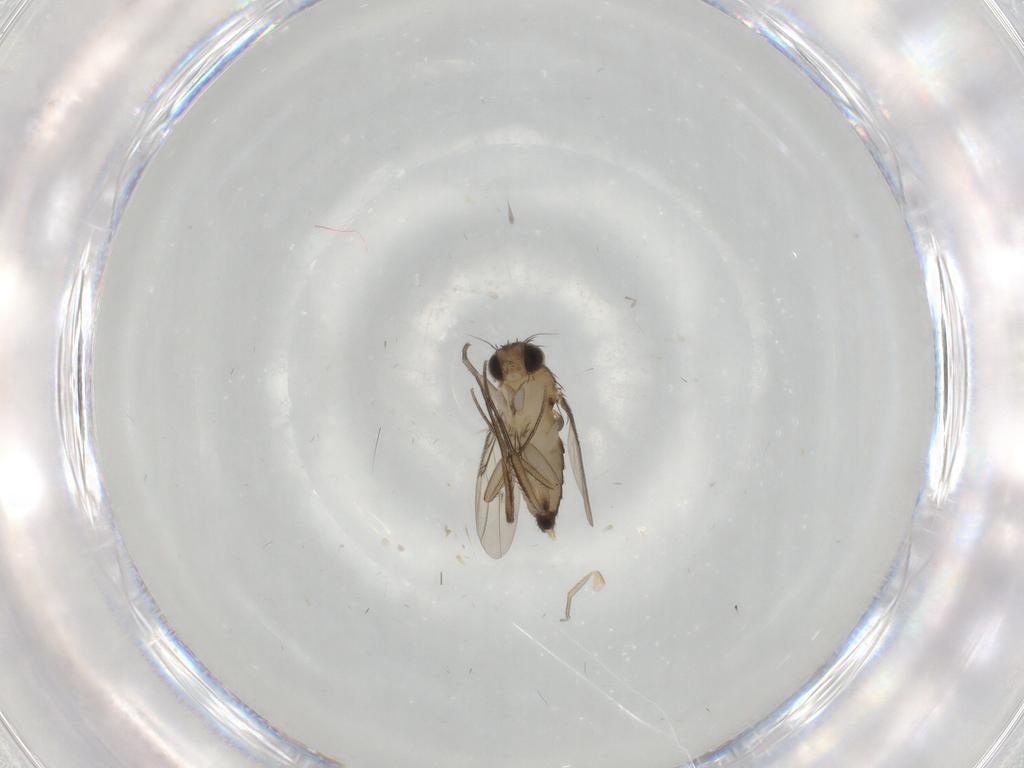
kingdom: Animalia
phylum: Arthropoda
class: Insecta
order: Diptera
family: Phoridae
